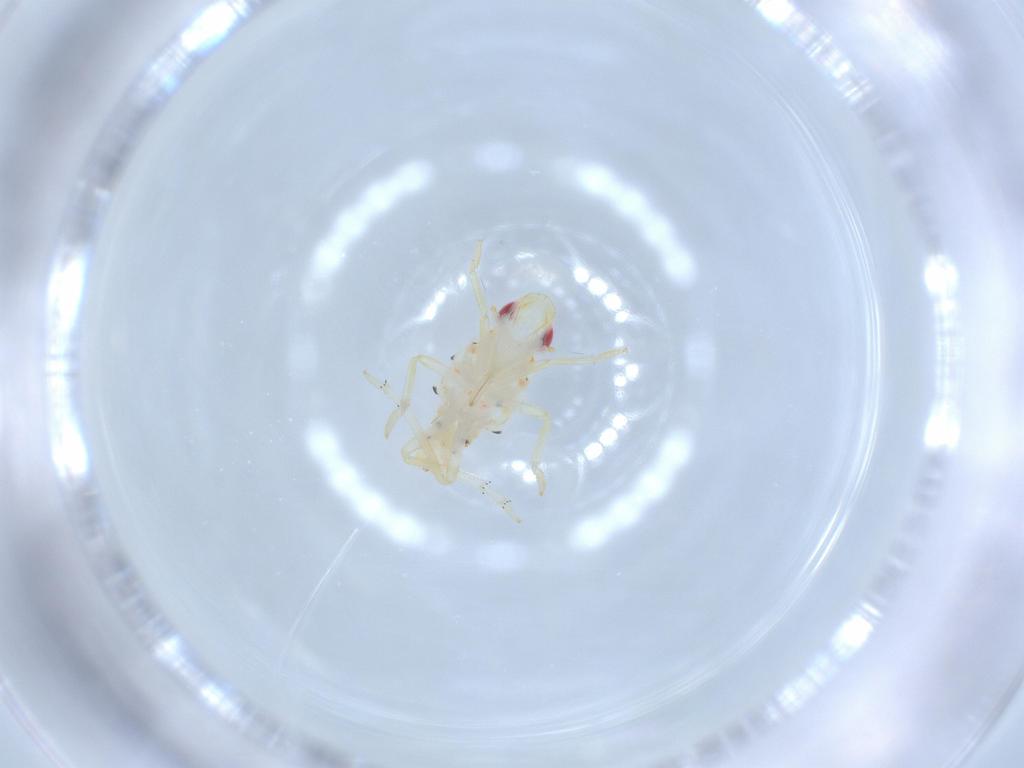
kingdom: Animalia
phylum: Arthropoda
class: Insecta
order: Hemiptera
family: Tropiduchidae
